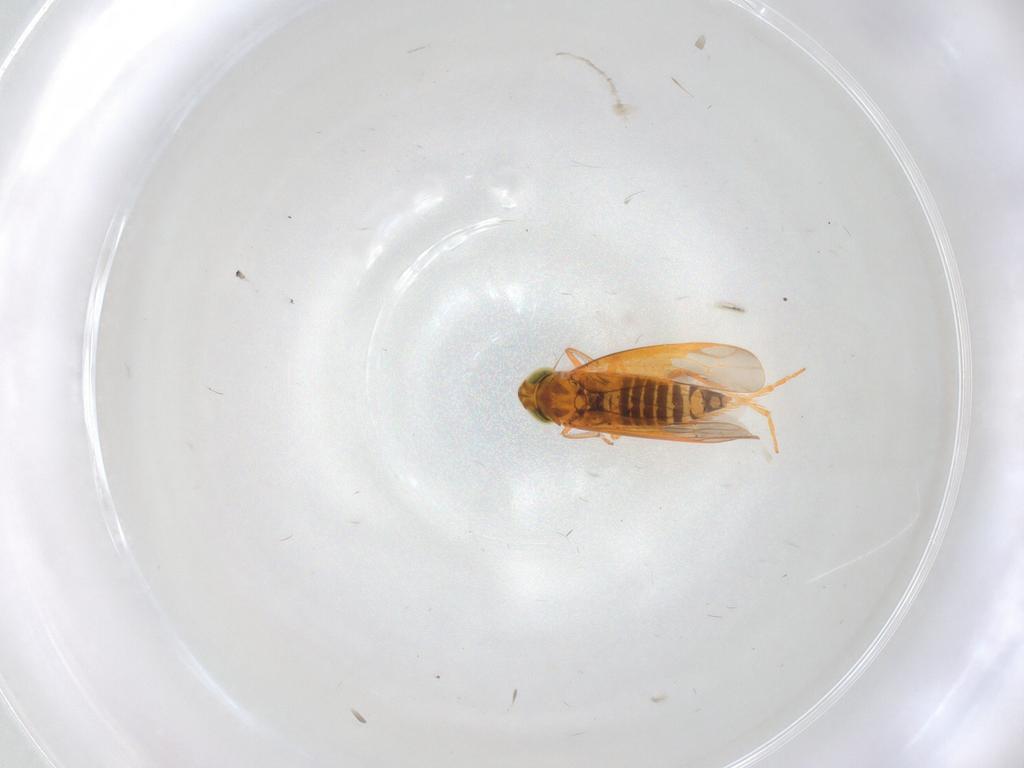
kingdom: Animalia
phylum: Arthropoda
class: Insecta
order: Hemiptera
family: Cicadellidae
